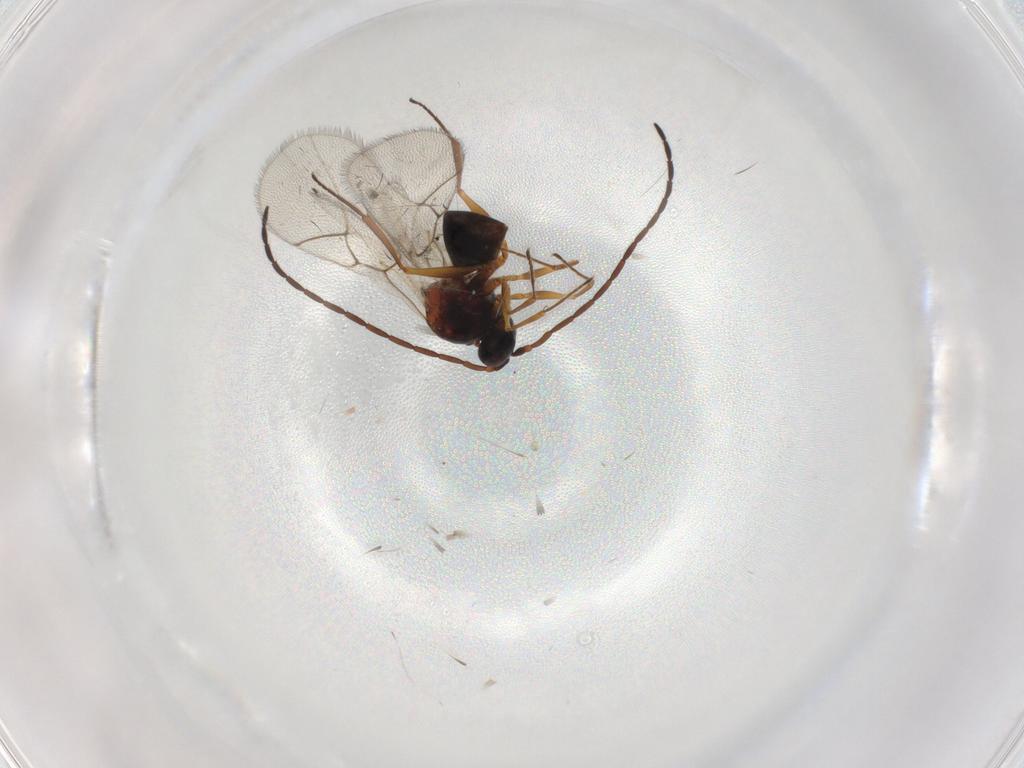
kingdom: Animalia
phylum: Arthropoda
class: Insecta
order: Hymenoptera
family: Figitidae
